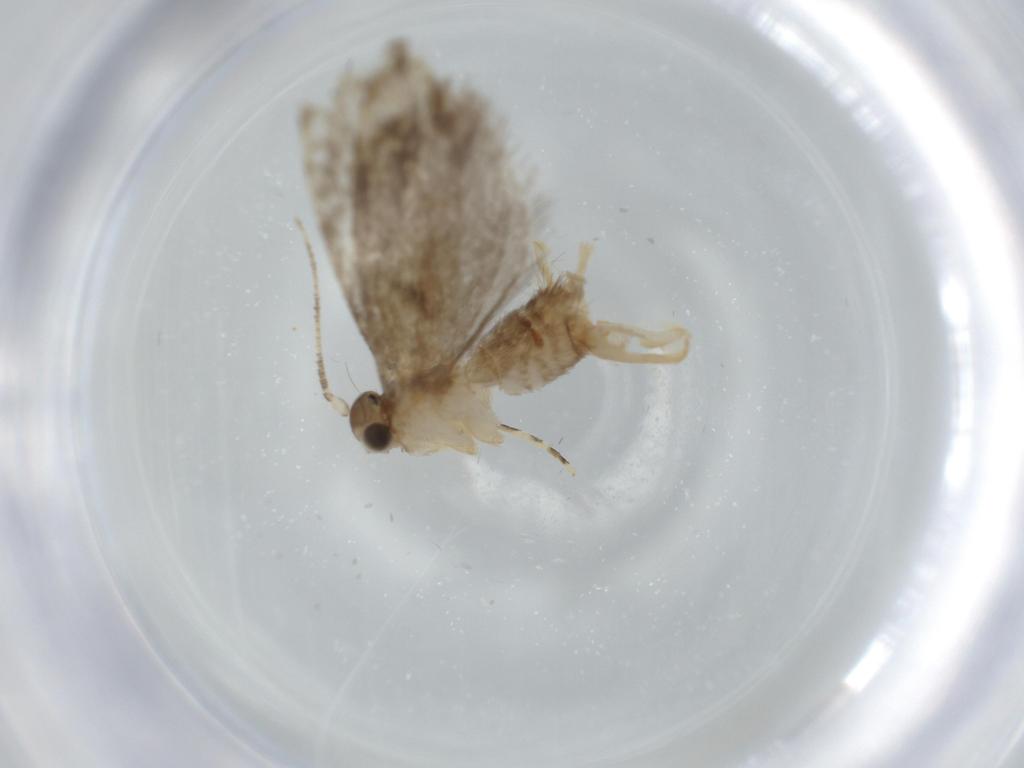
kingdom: Animalia
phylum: Arthropoda
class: Insecta
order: Lepidoptera
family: Tineidae
